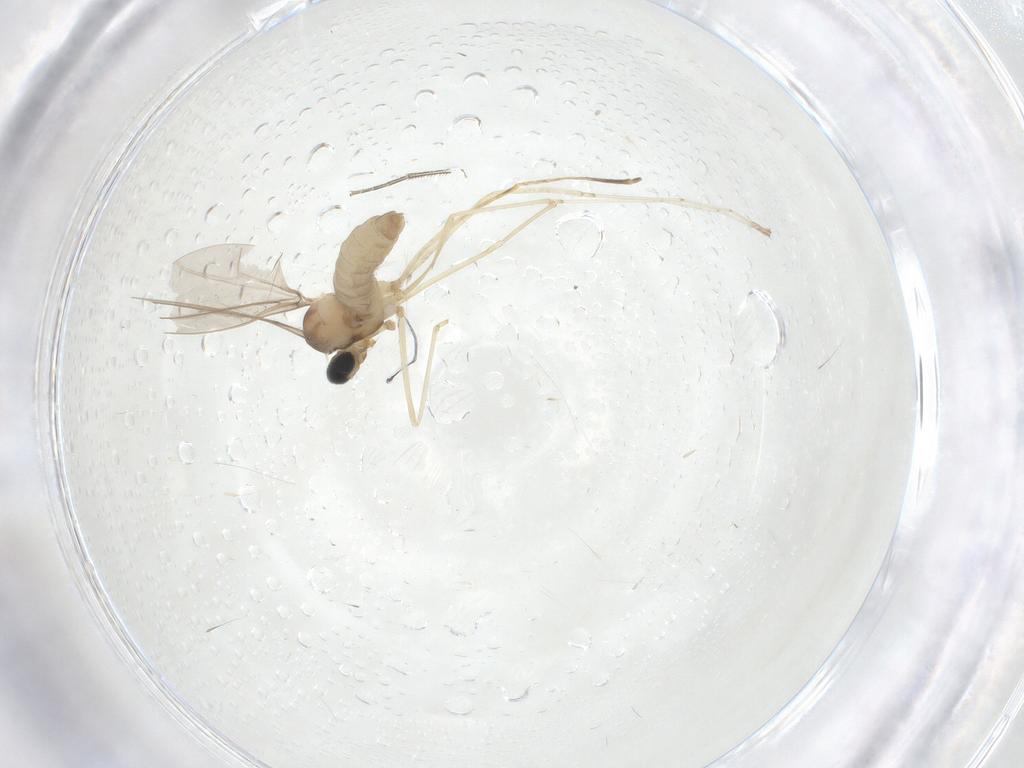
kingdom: Animalia
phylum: Arthropoda
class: Insecta
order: Diptera
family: Cecidomyiidae
